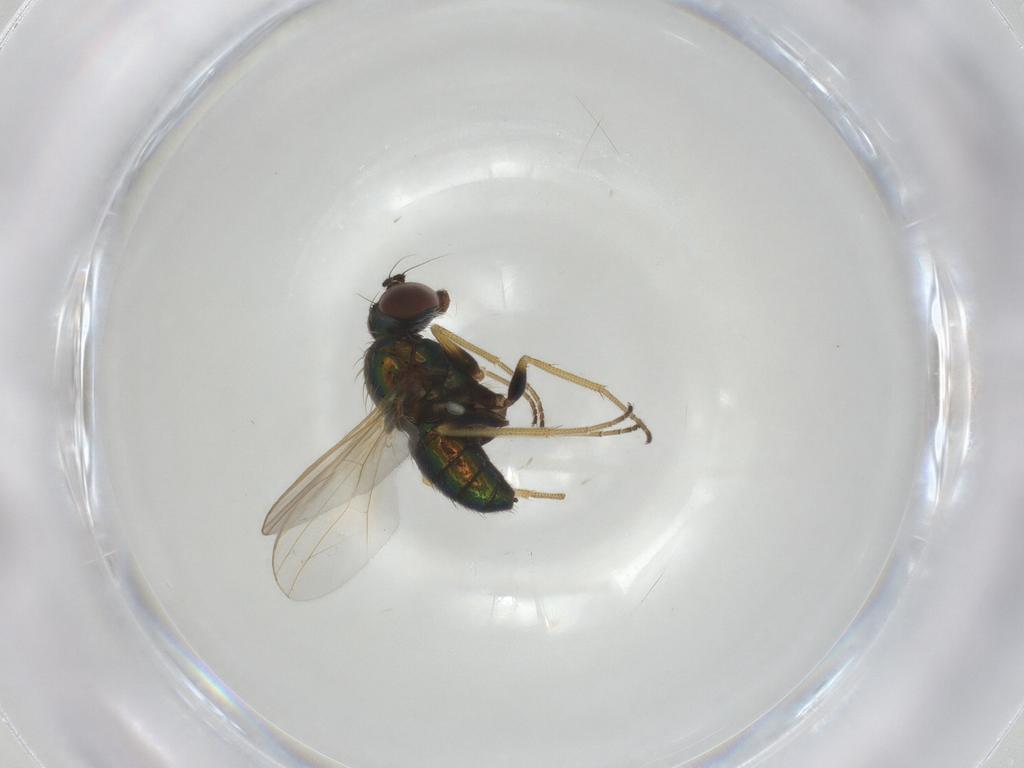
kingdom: Animalia
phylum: Arthropoda
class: Insecta
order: Diptera
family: Dolichopodidae
